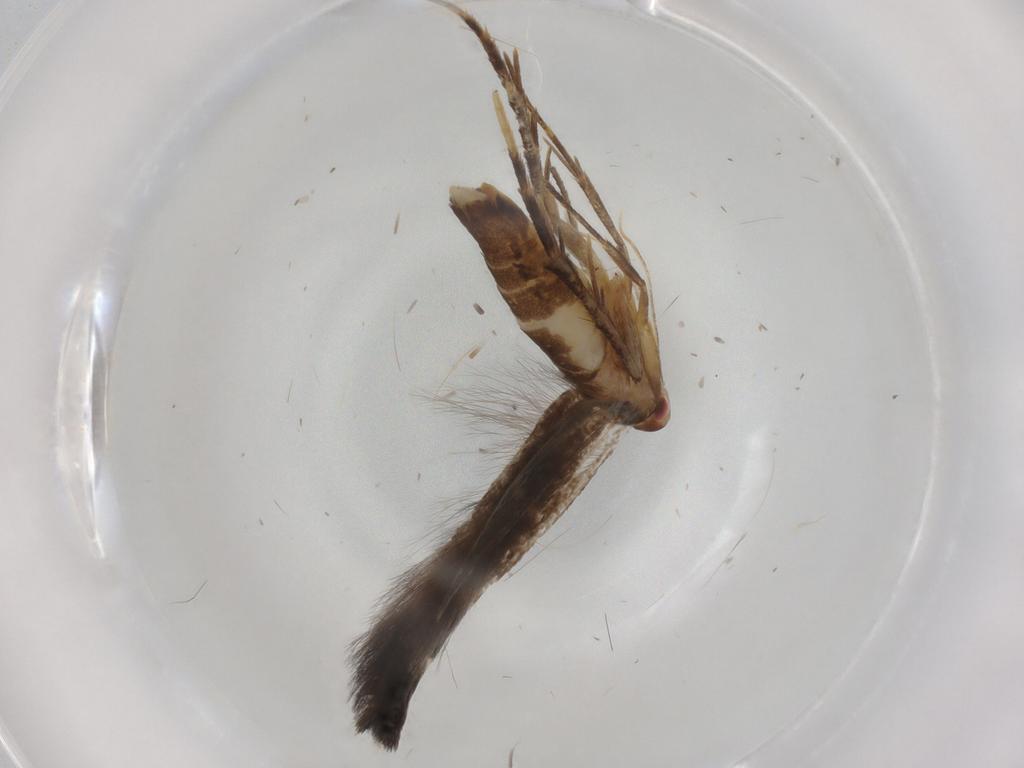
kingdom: Animalia
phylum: Arthropoda
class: Insecta
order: Lepidoptera
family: Cosmopterigidae
